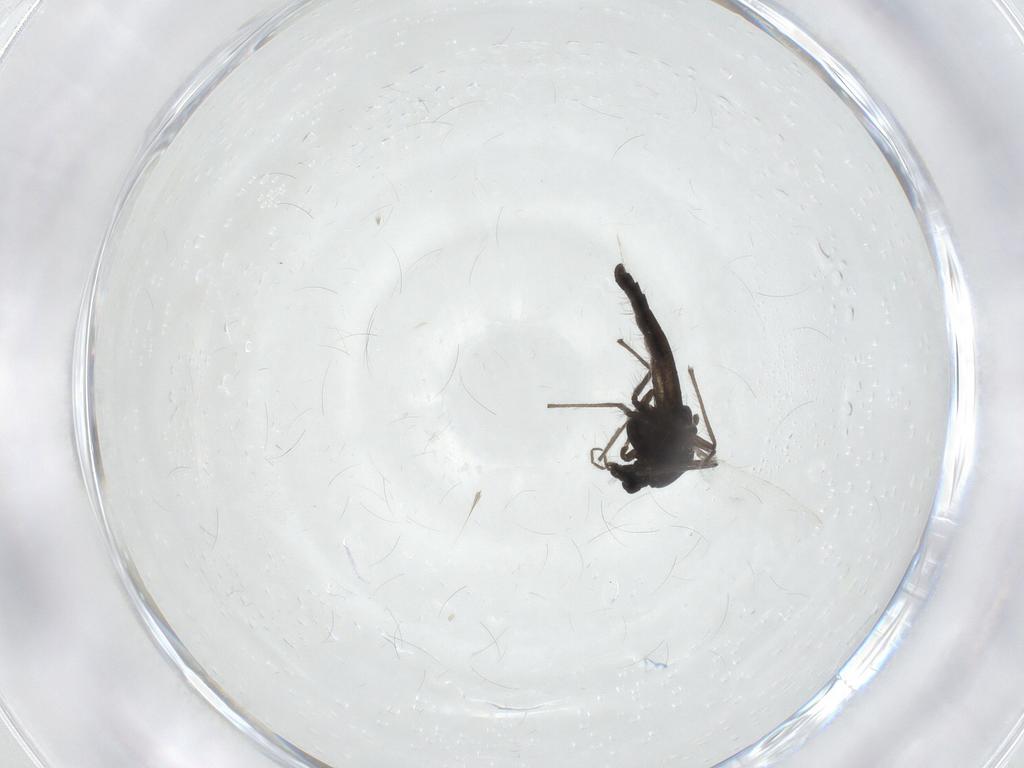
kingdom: Animalia
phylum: Arthropoda
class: Insecta
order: Diptera
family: Chironomidae
